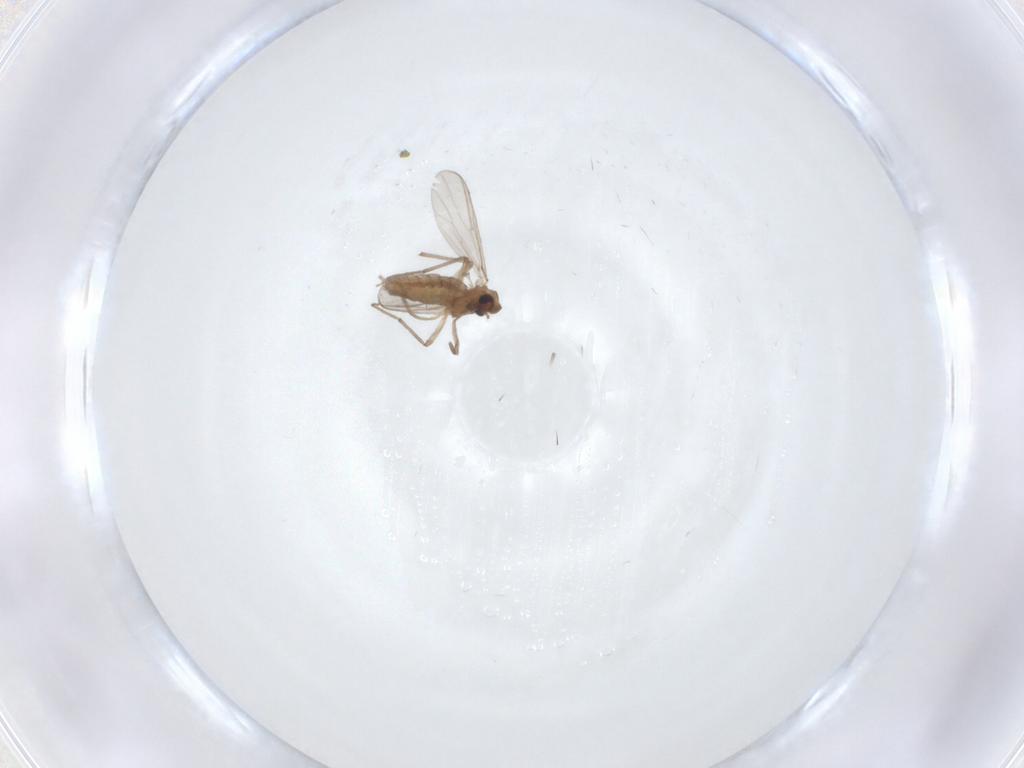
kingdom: Animalia
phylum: Arthropoda
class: Insecta
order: Diptera
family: Chironomidae
